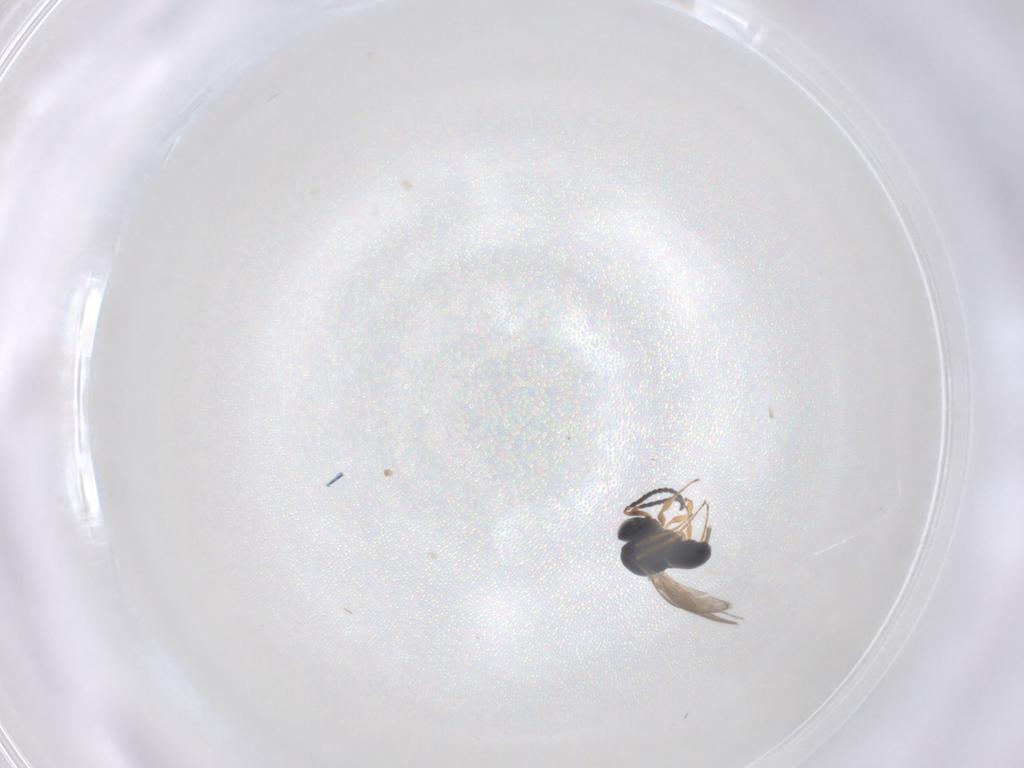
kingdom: Animalia
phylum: Arthropoda
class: Insecta
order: Hymenoptera
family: Scelionidae
